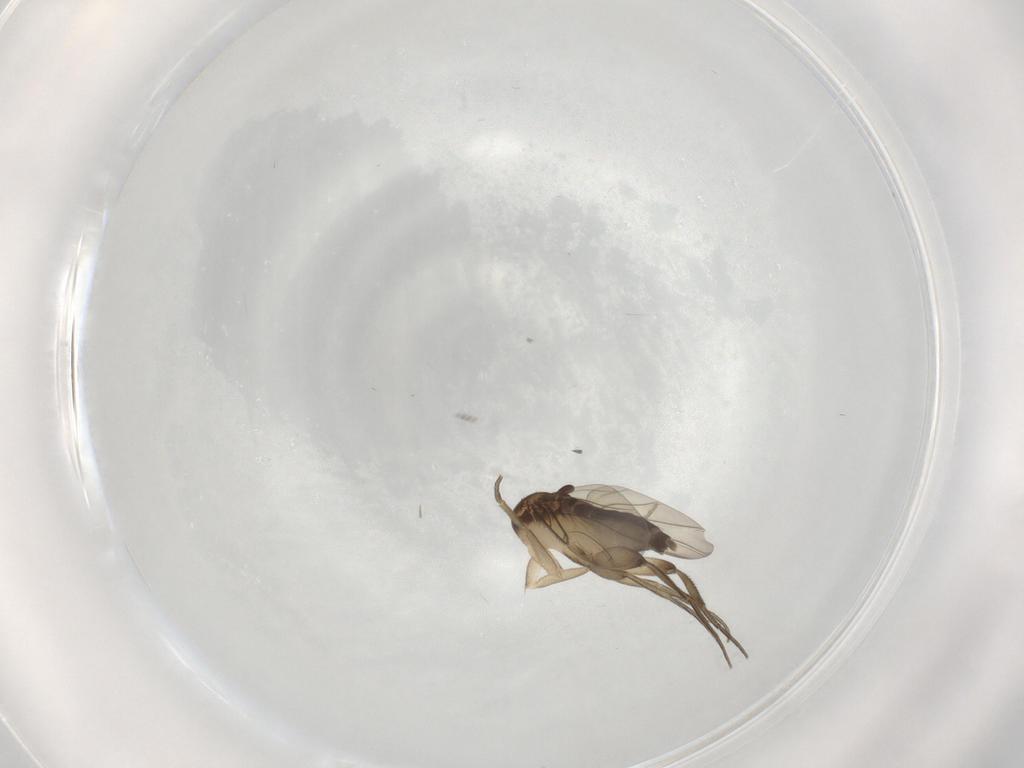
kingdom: Animalia
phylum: Arthropoda
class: Insecta
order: Diptera
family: Phoridae
